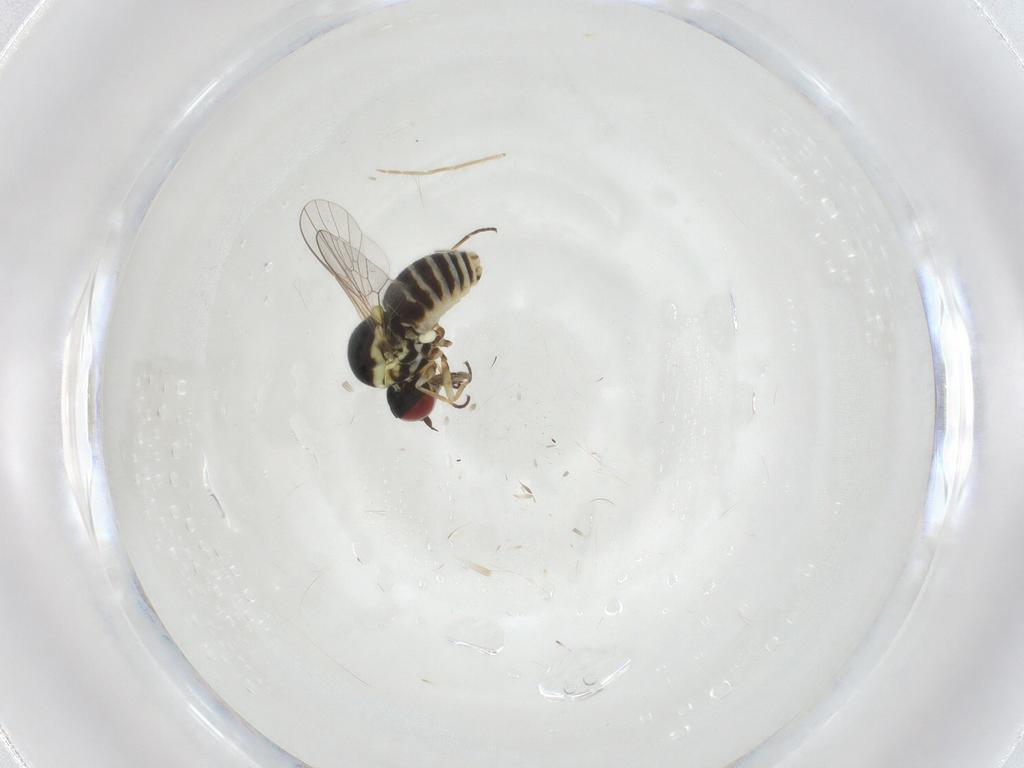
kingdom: Animalia
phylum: Arthropoda
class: Insecta
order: Diptera
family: Chironomidae
